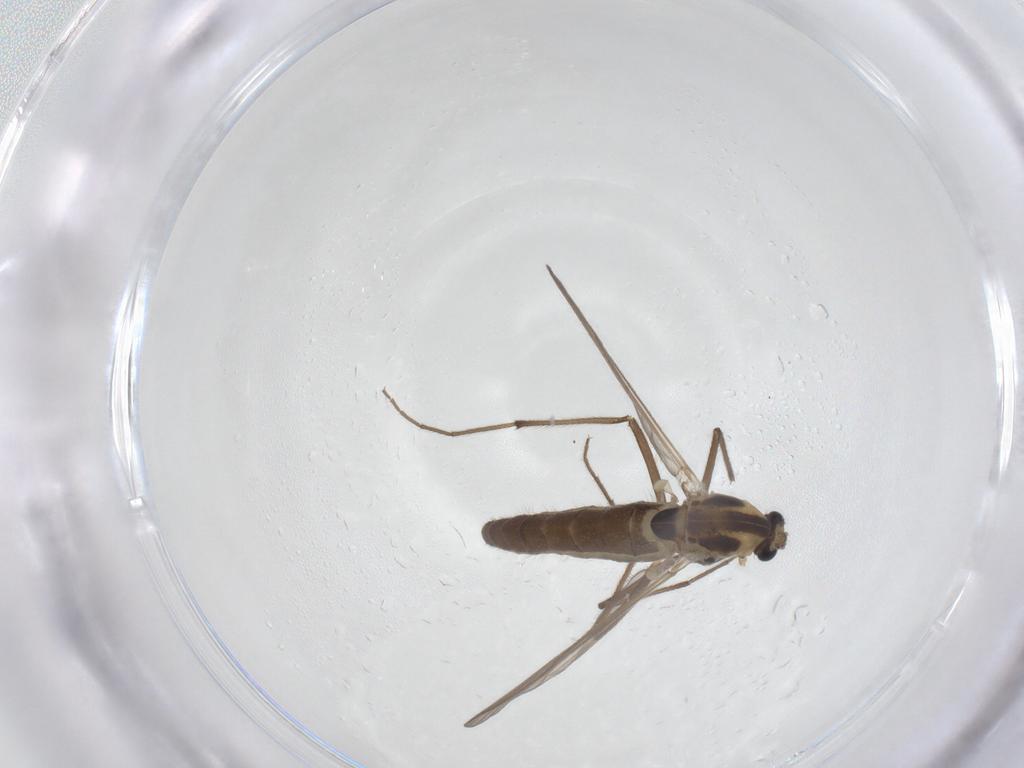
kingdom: Animalia
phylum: Arthropoda
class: Insecta
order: Diptera
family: Chironomidae
